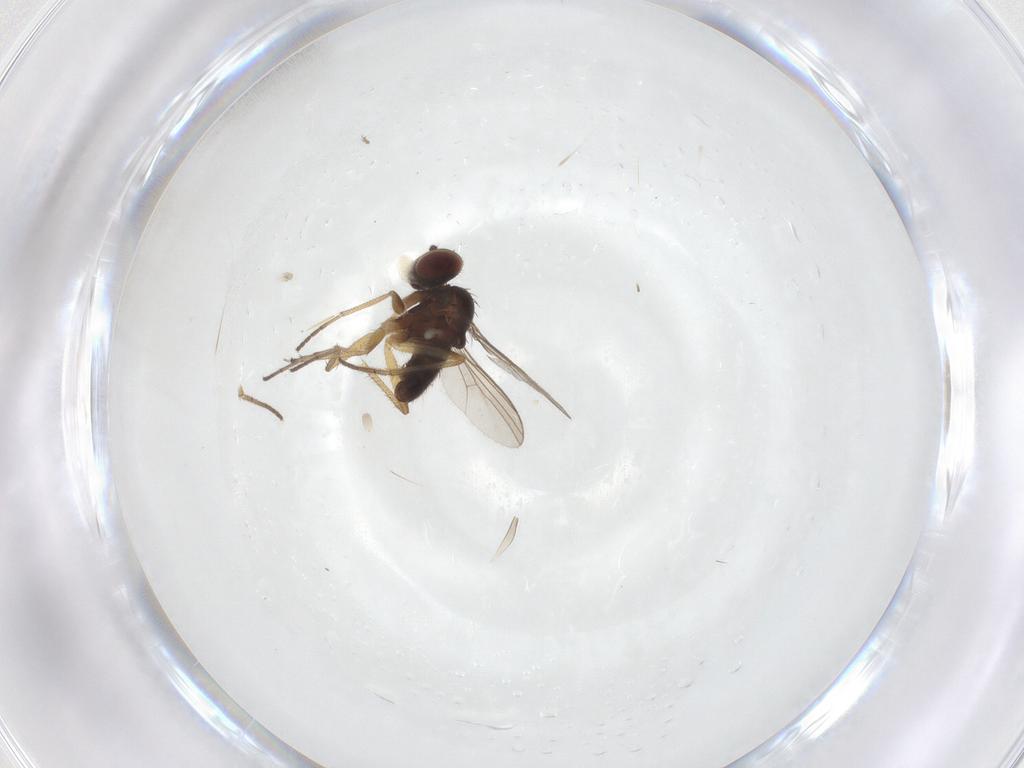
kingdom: Animalia
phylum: Arthropoda
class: Insecta
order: Diptera
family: Dolichopodidae
